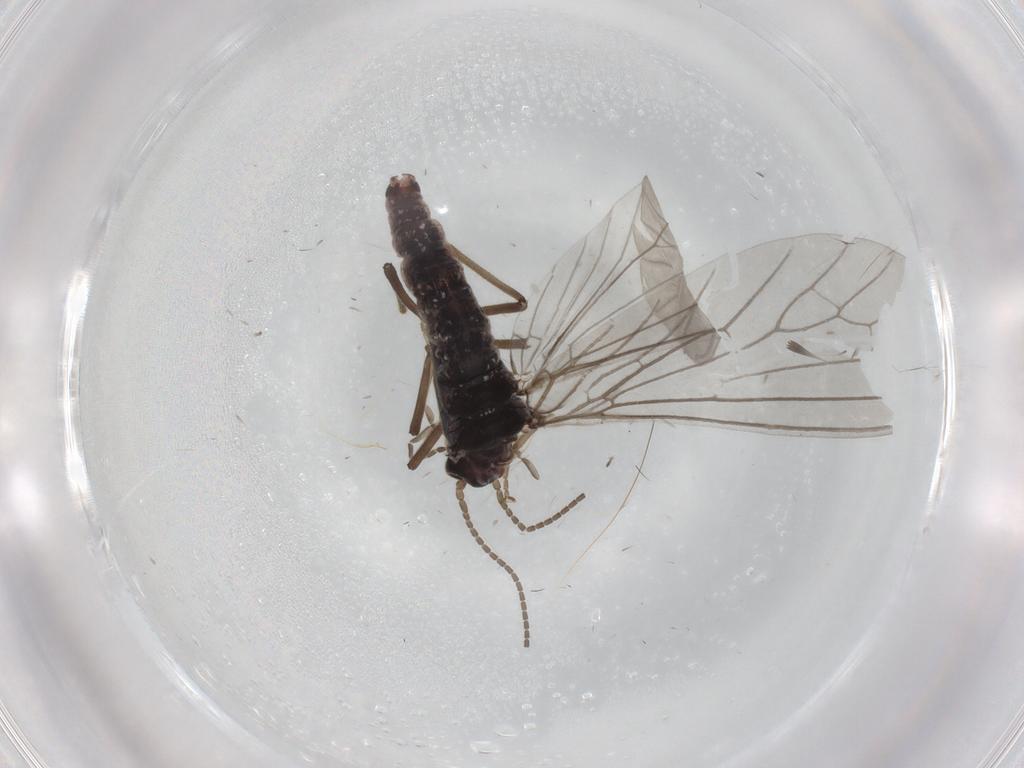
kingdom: Animalia
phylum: Arthropoda
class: Insecta
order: Neuroptera
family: Coniopterygidae
